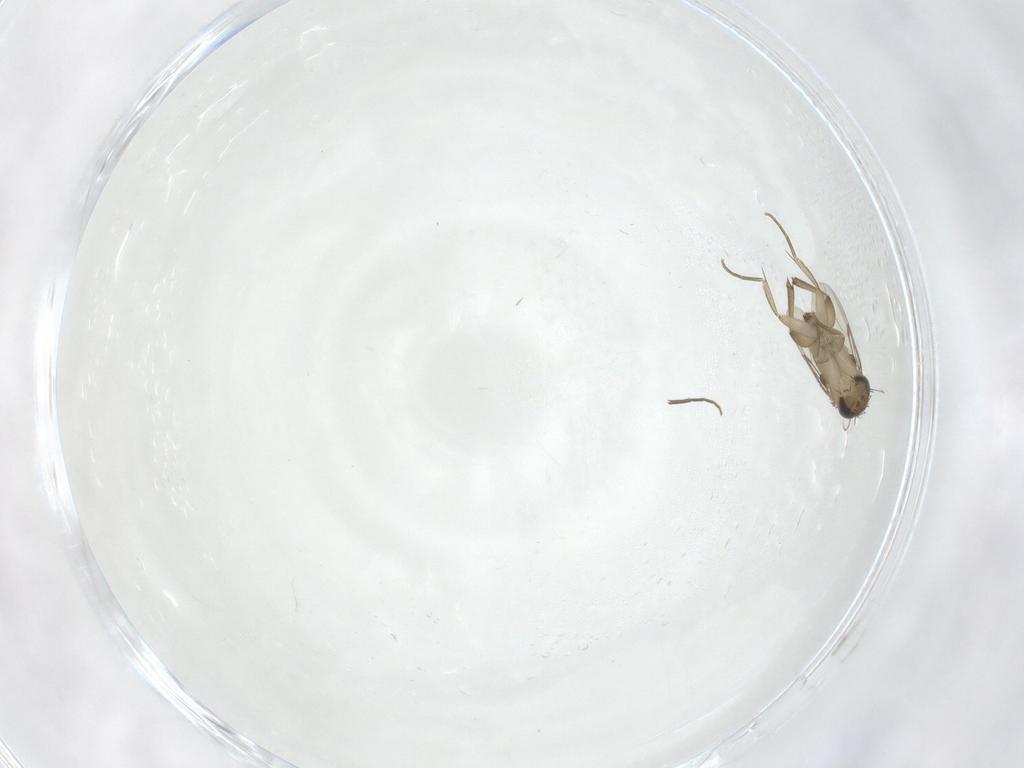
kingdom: Animalia
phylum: Arthropoda
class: Insecta
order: Diptera
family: Phoridae
